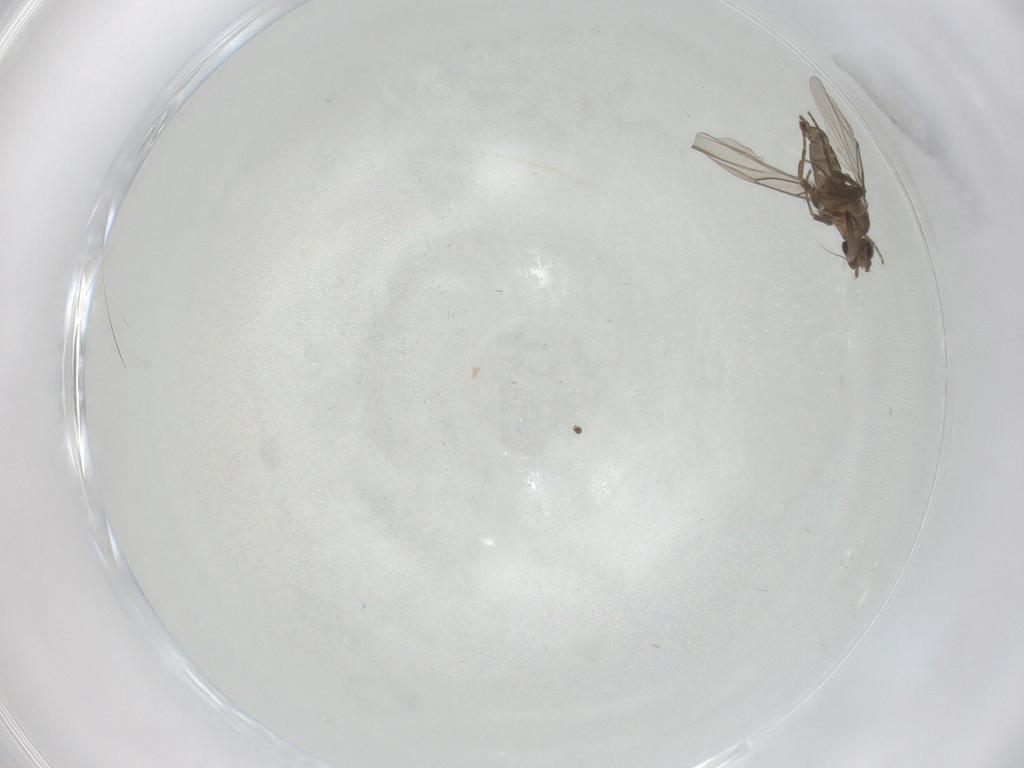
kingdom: Animalia
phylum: Arthropoda
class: Insecta
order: Diptera
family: Phoridae
